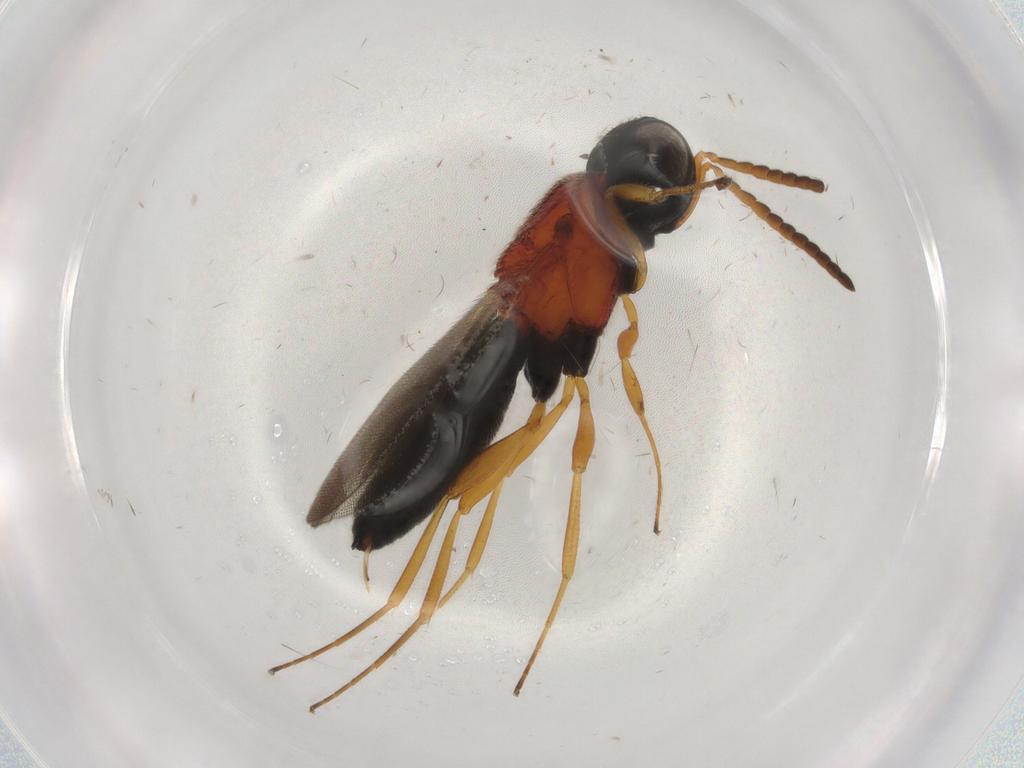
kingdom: Animalia
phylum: Arthropoda
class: Insecta
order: Hymenoptera
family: Scelionidae
